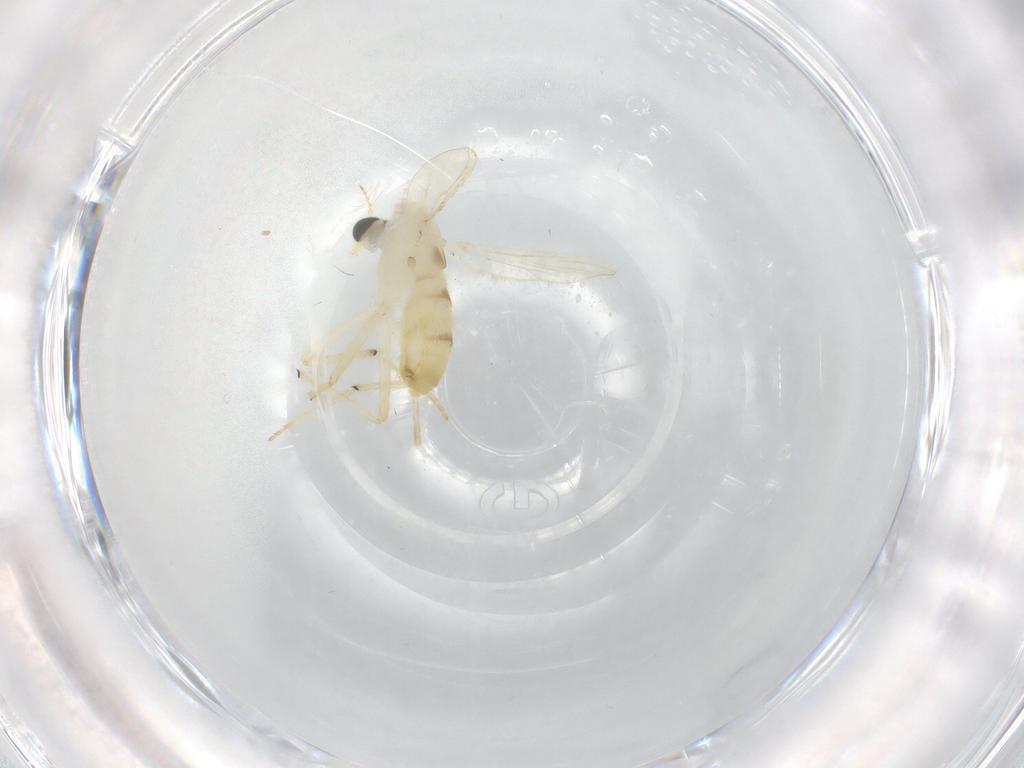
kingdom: Animalia
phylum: Arthropoda
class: Insecta
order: Diptera
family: Chironomidae
